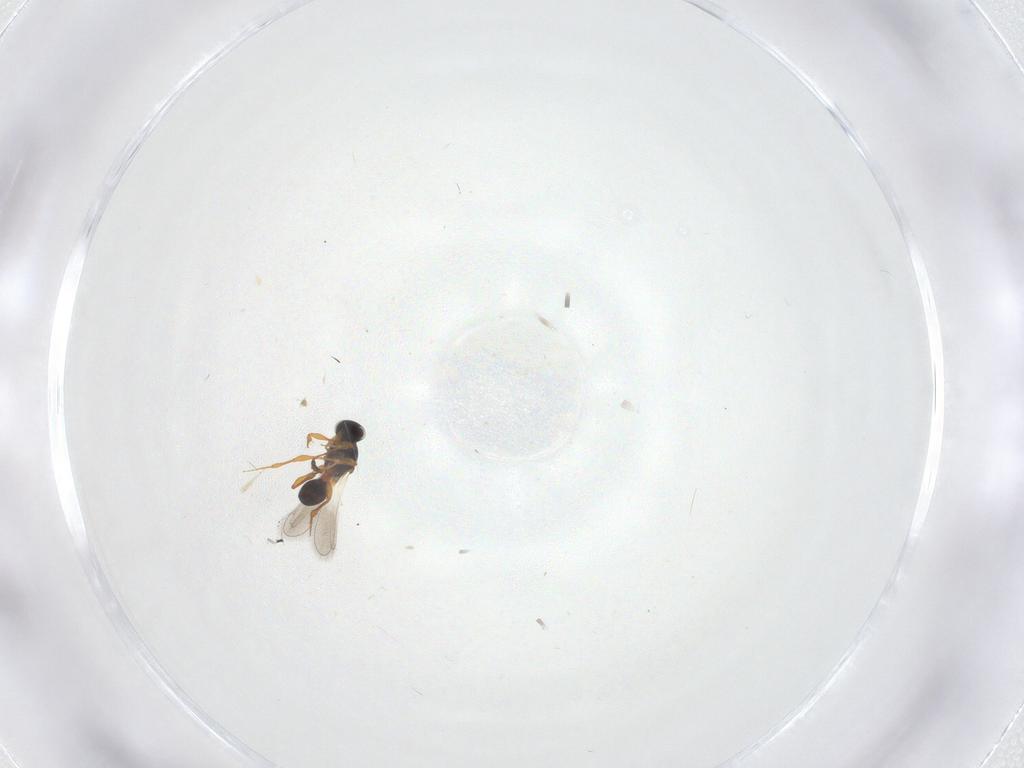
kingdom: Animalia
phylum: Arthropoda
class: Insecta
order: Hymenoptera
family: Platygastridae
